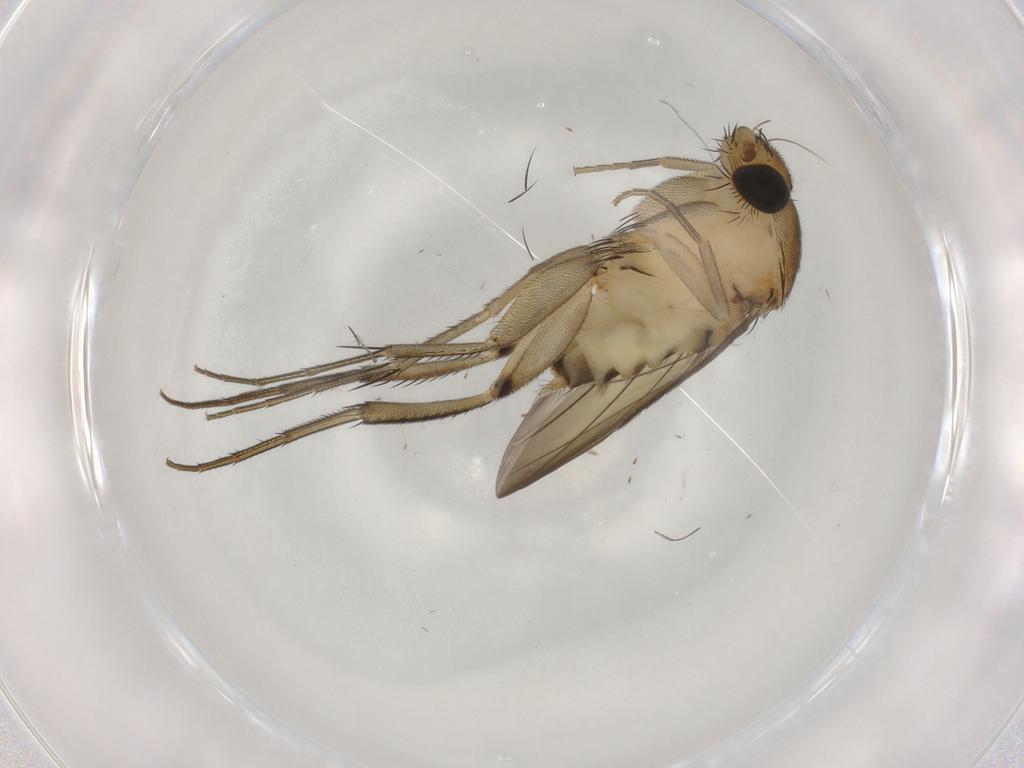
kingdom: Animalia
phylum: Arthropoda
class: Insecta
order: Diptera
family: Phoridae
